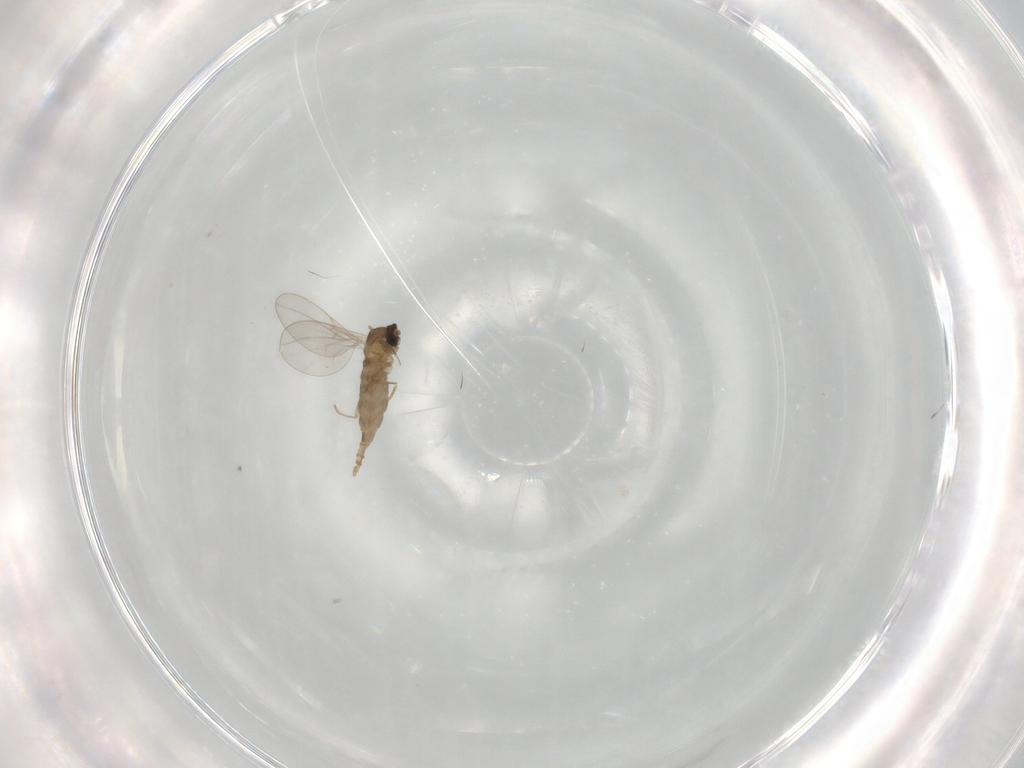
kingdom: Animalia
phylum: Arthropoda
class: Insecta
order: Diptera
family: Cecidomyiidae
